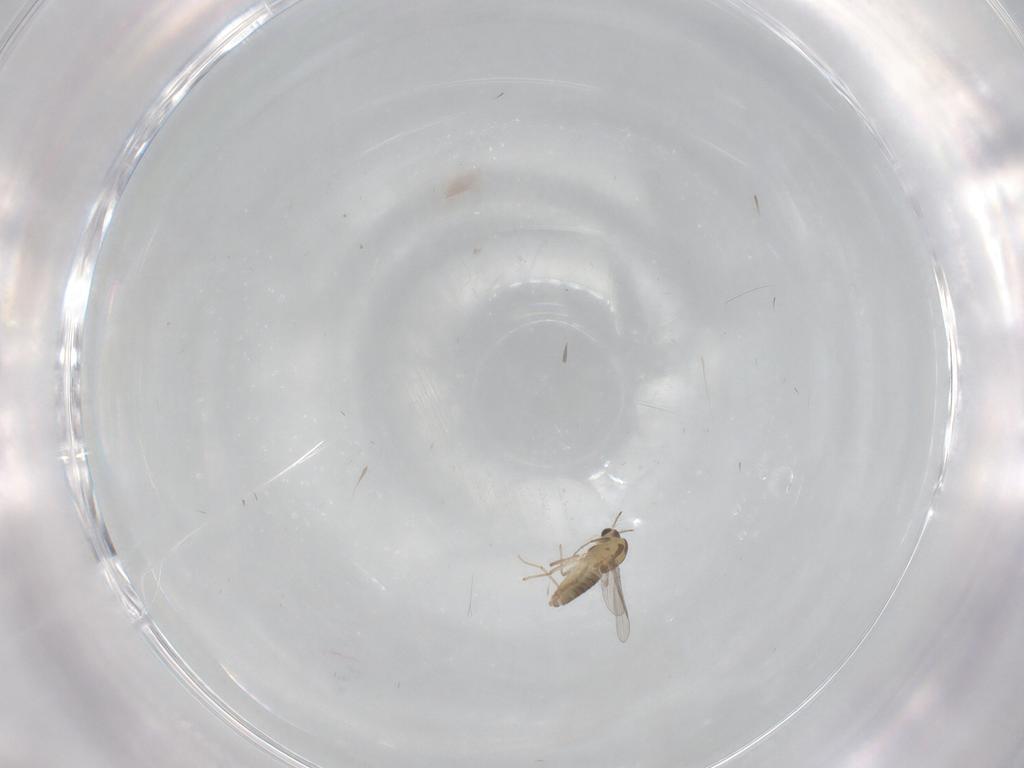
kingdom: Animalia
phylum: Arthropoda
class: Insecta
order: Diptera
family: Chironomidae
